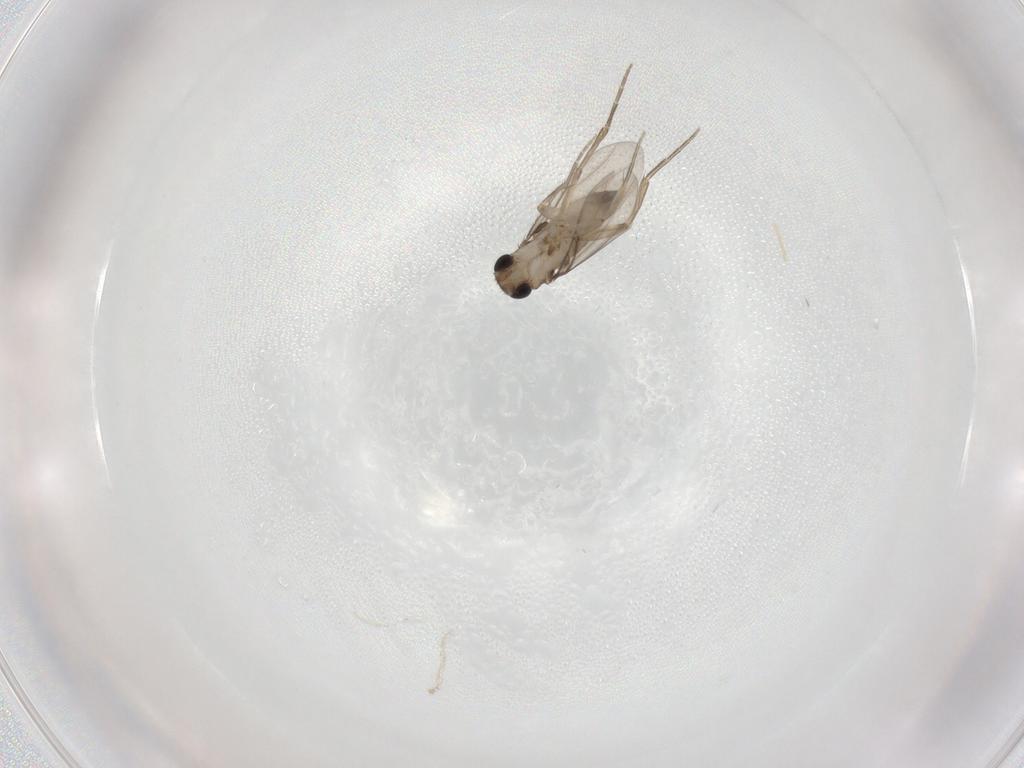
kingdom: Animalia
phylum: Arthropoda
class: Insecta
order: Diptera
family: Phoridae
